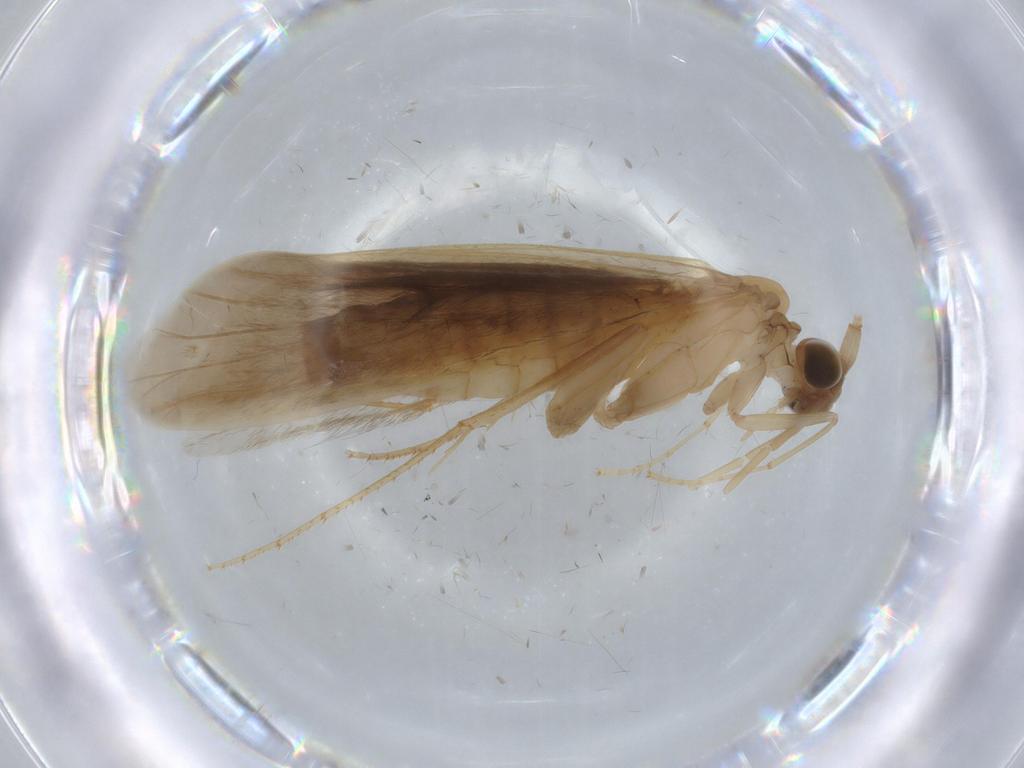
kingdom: Animalia
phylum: Arthropoda
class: Insecta
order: Trichoptera
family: Leptoceridae
